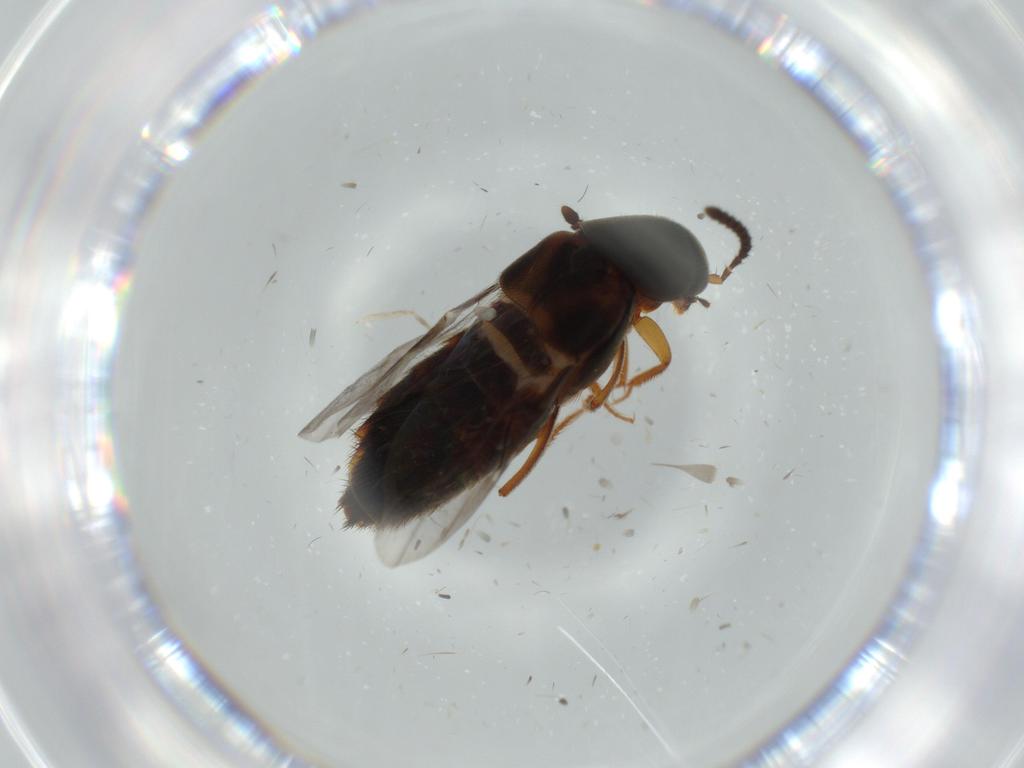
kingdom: Animalia
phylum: Arthropoda
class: Insecta
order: Coleoptera
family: Staphylinidae
